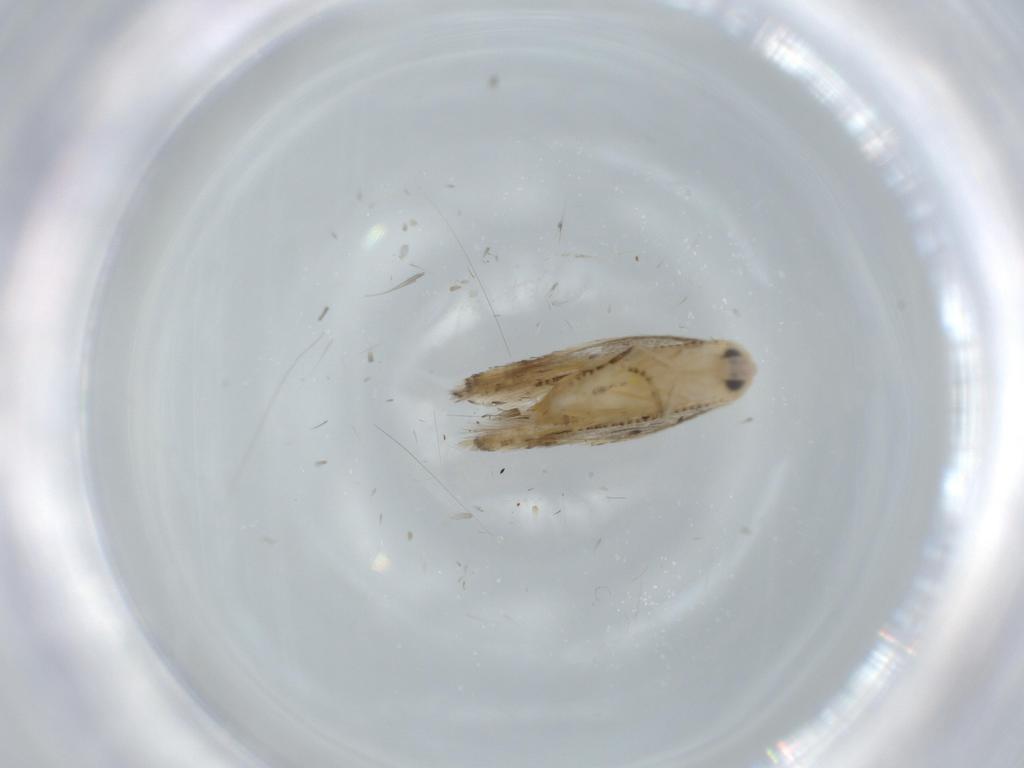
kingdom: Animalia
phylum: Arthropoda
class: Insecta
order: Lepidoptera
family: Bucculatricidae
